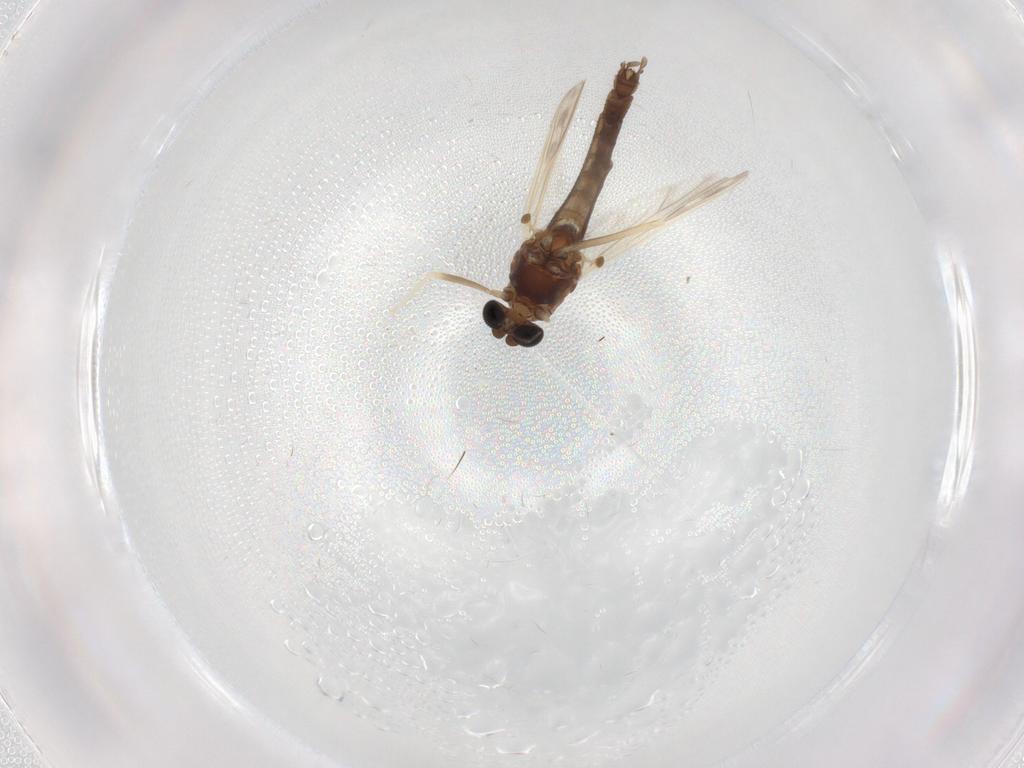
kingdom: Animalia
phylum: Arthropoda
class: Insecta
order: Diptera
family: Chironomidae
